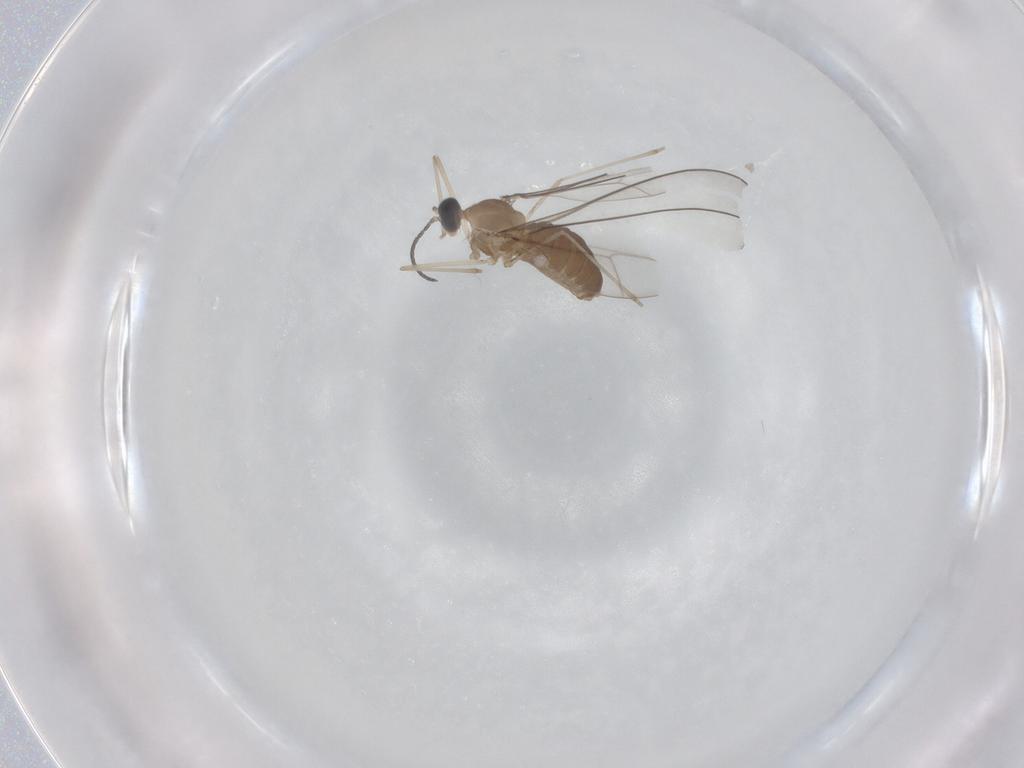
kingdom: Animalia
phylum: Arthropoda
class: Insecta
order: Diptera
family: Cecidomyiidae
